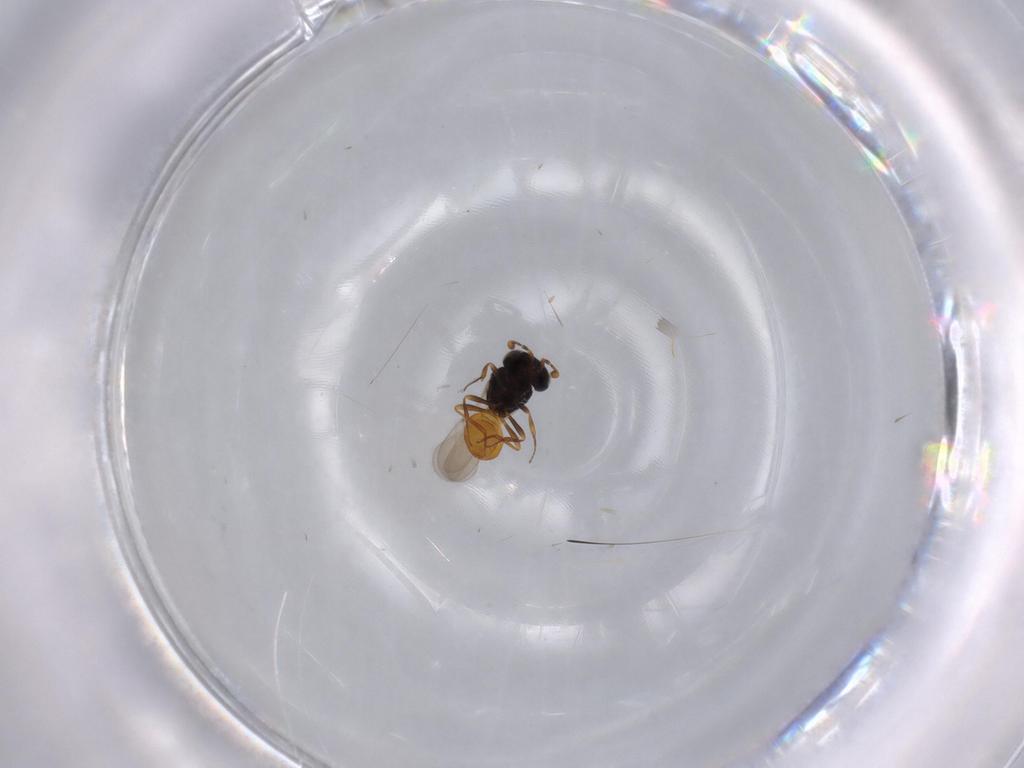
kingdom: Animalia
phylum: Arthropoda
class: Insecta
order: Hymenoptera
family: Scelionidae
